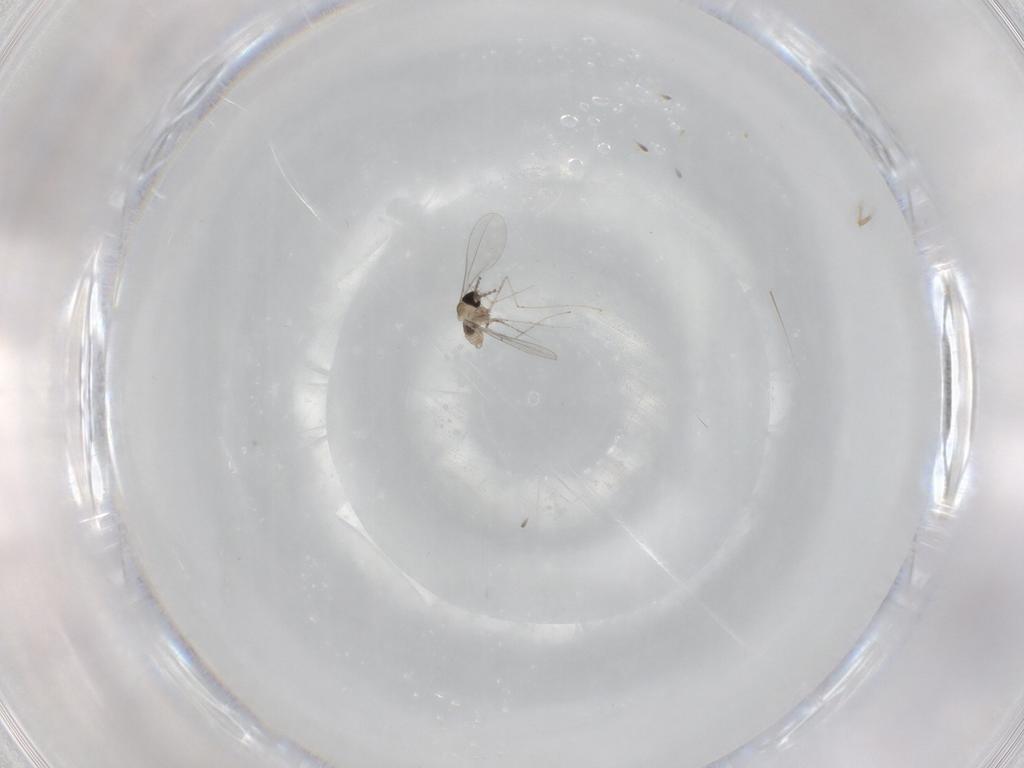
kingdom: Animalia
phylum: Arthropoda
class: Insecta
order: Diptera
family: Cecidomyiidae
